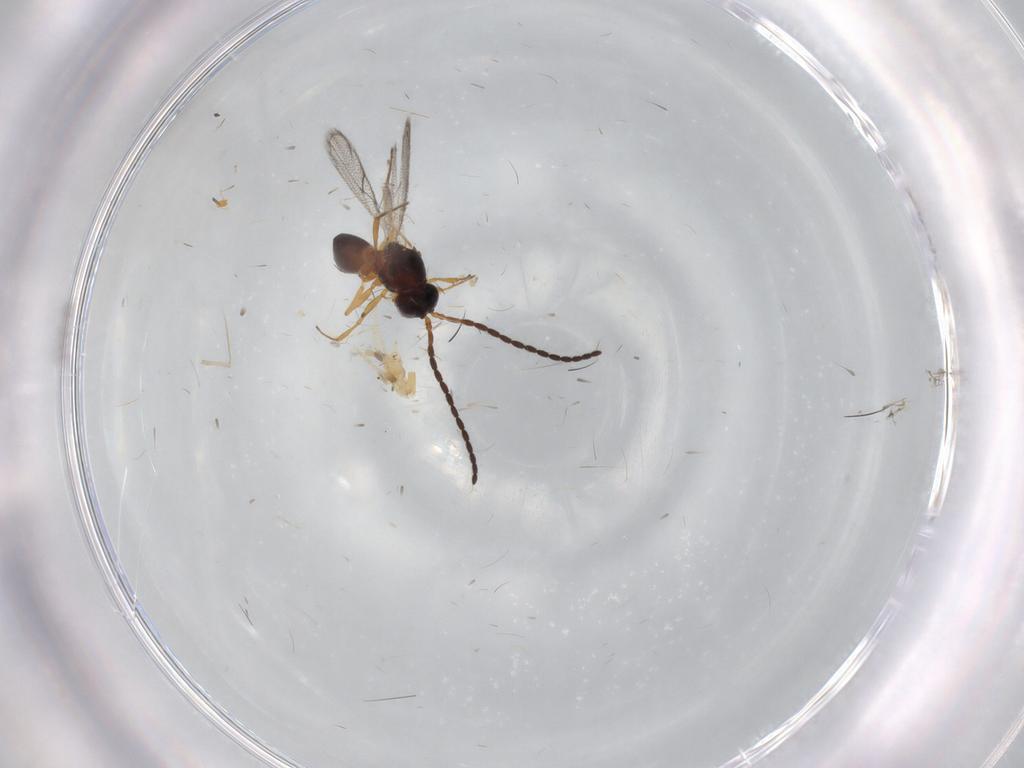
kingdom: Animalia
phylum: Arthropoda
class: Insecta
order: Hymenoptera
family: Figitidae
